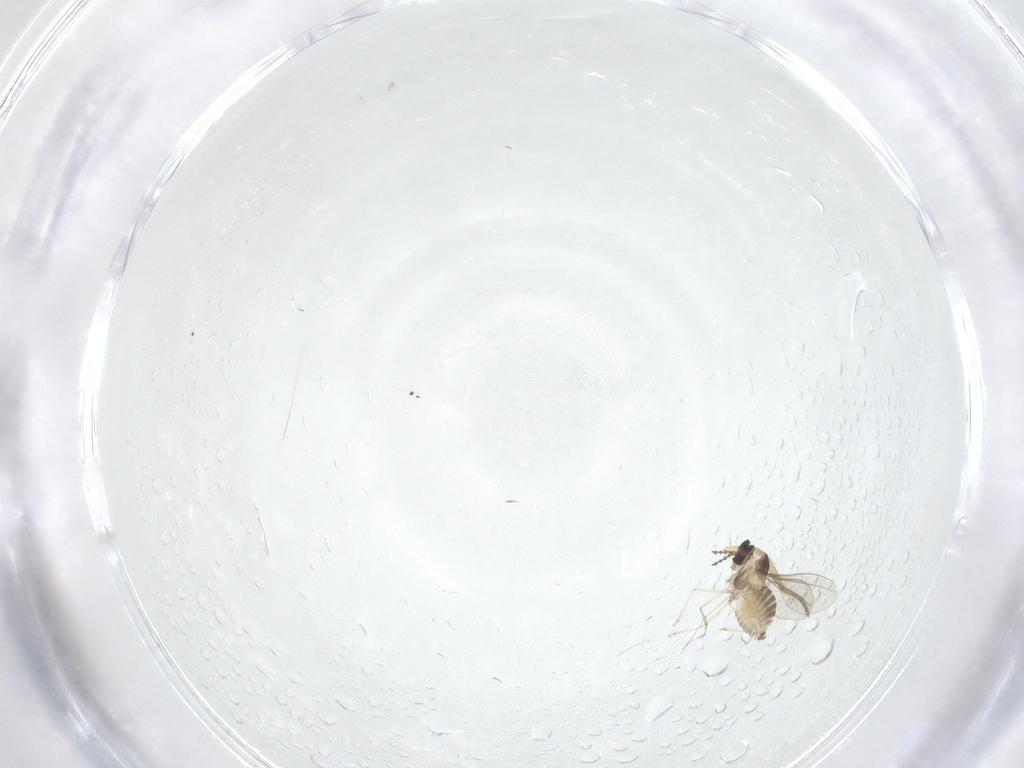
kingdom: Animalia
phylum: Arthropoda
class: Insecta
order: Diptera
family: Cecidomyiidae
